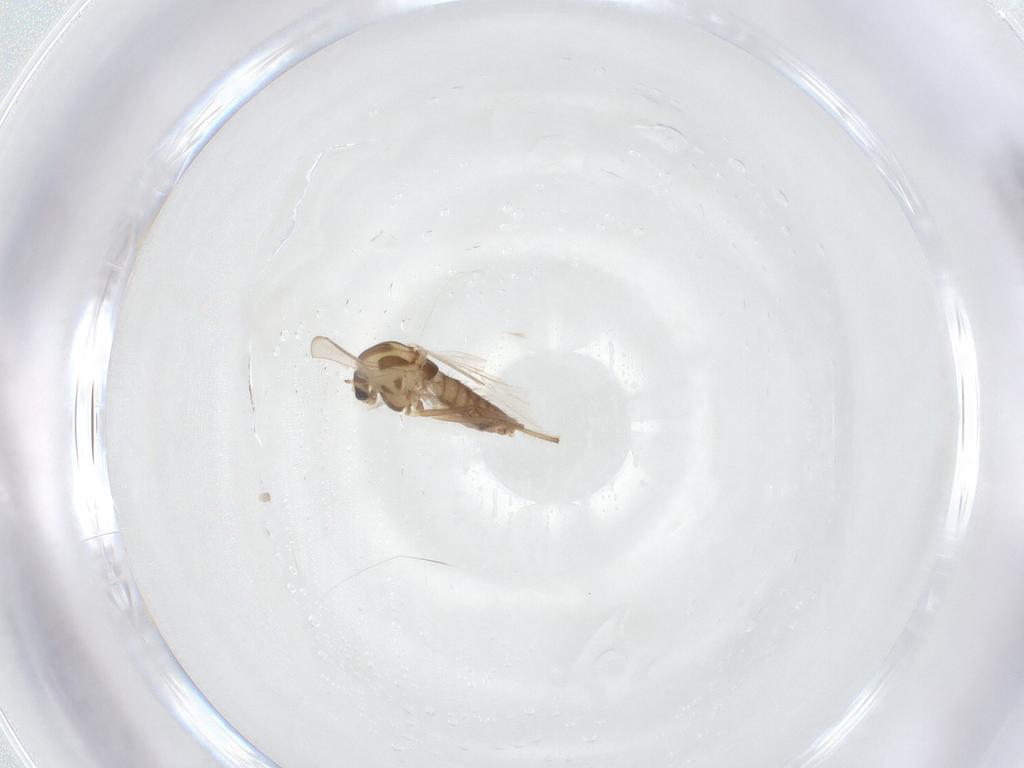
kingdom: Animalia
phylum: Arthropoda
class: Insecta
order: Diptera
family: Chironomidae
